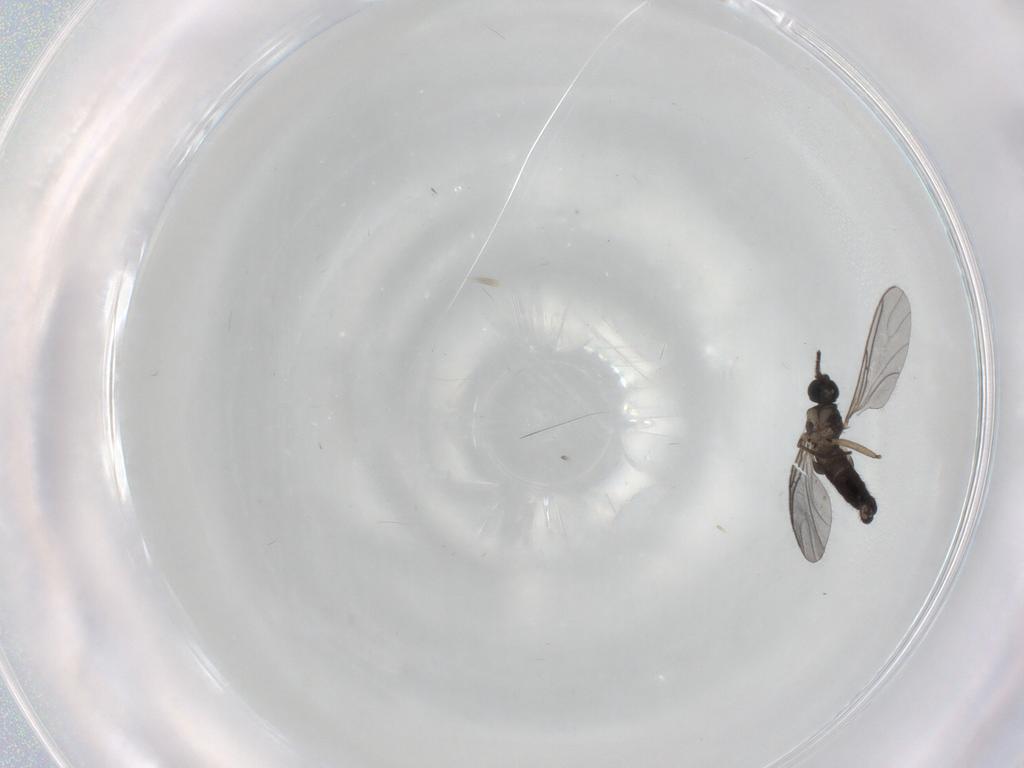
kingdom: Animalia
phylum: Arthropoda
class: Insecta
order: Diptera
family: Sciaridae
